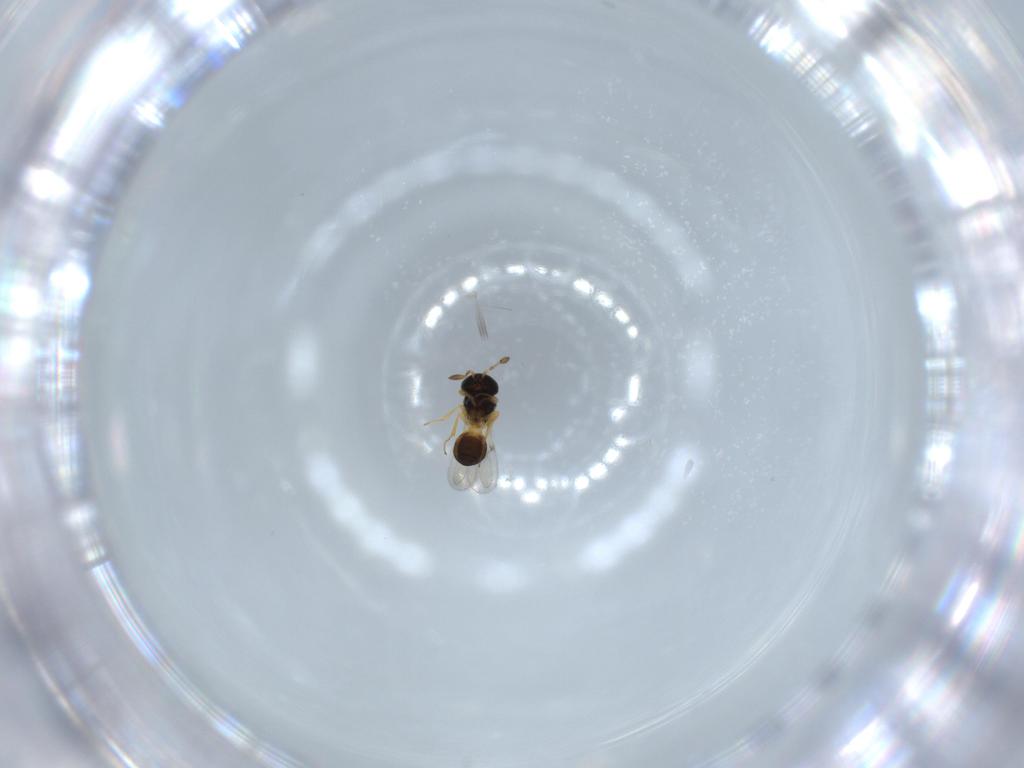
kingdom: Animalia
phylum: Arthropoda
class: Insecta
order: Hymenoptera
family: Scelionidae
